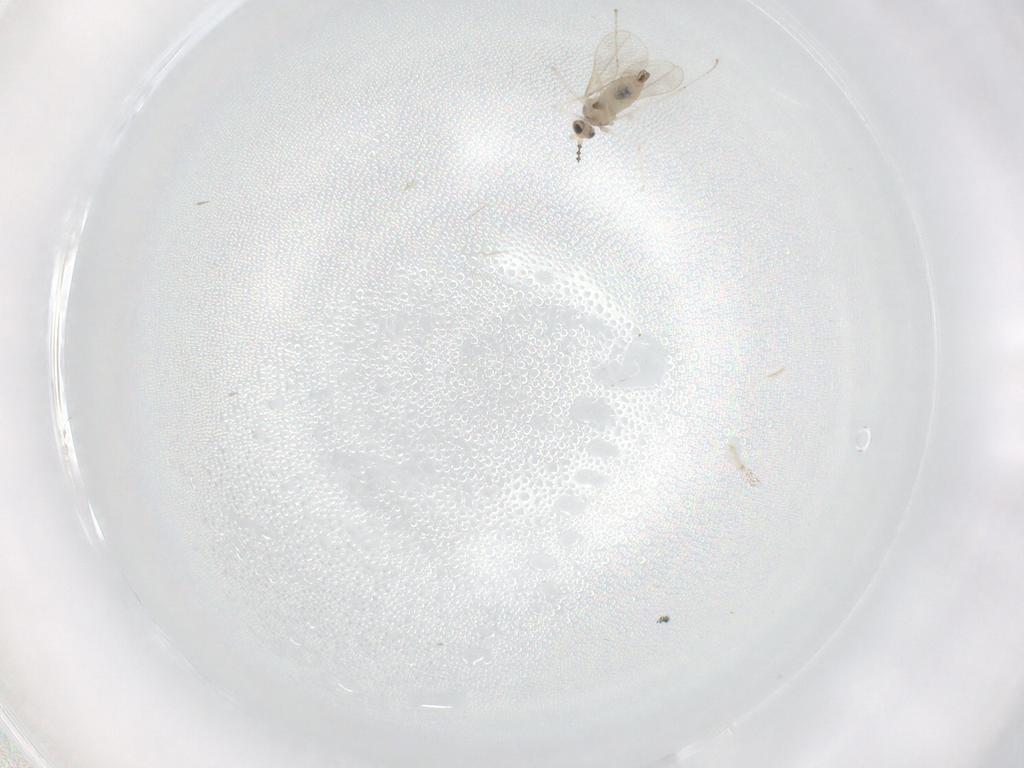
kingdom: Animalia
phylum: Arthropoda
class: Insecta
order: Diptera
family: Cecidomyiidae
